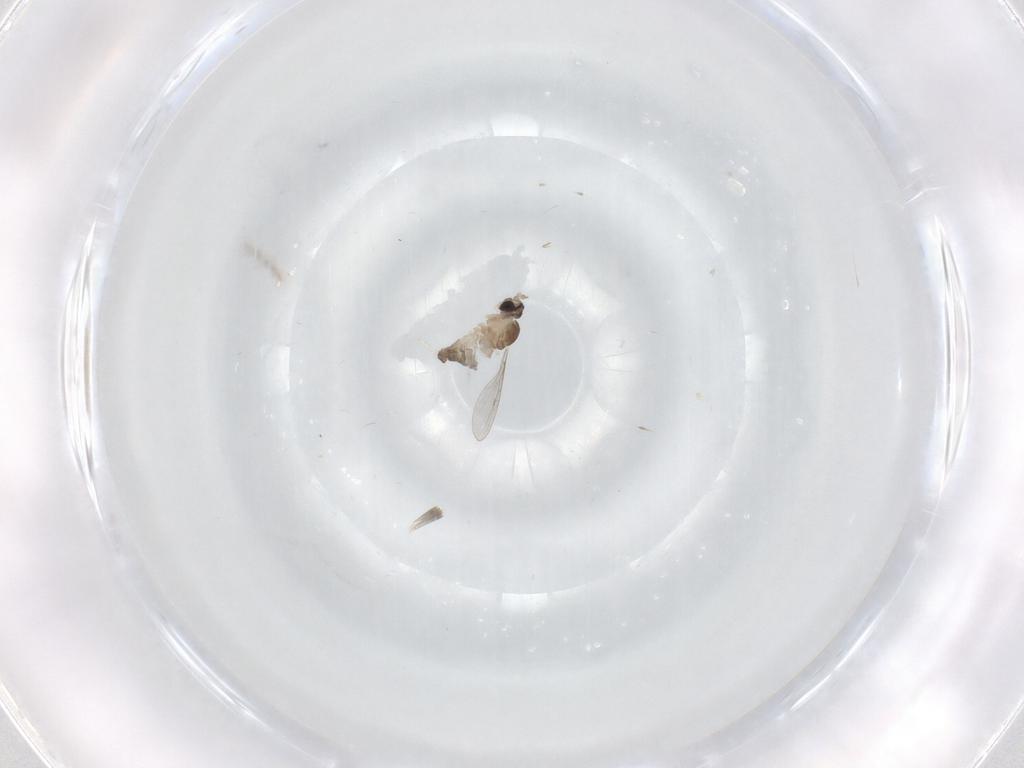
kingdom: Animalia
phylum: Arthropoda
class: Insecta
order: Diptera
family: Cecidomyiidae
